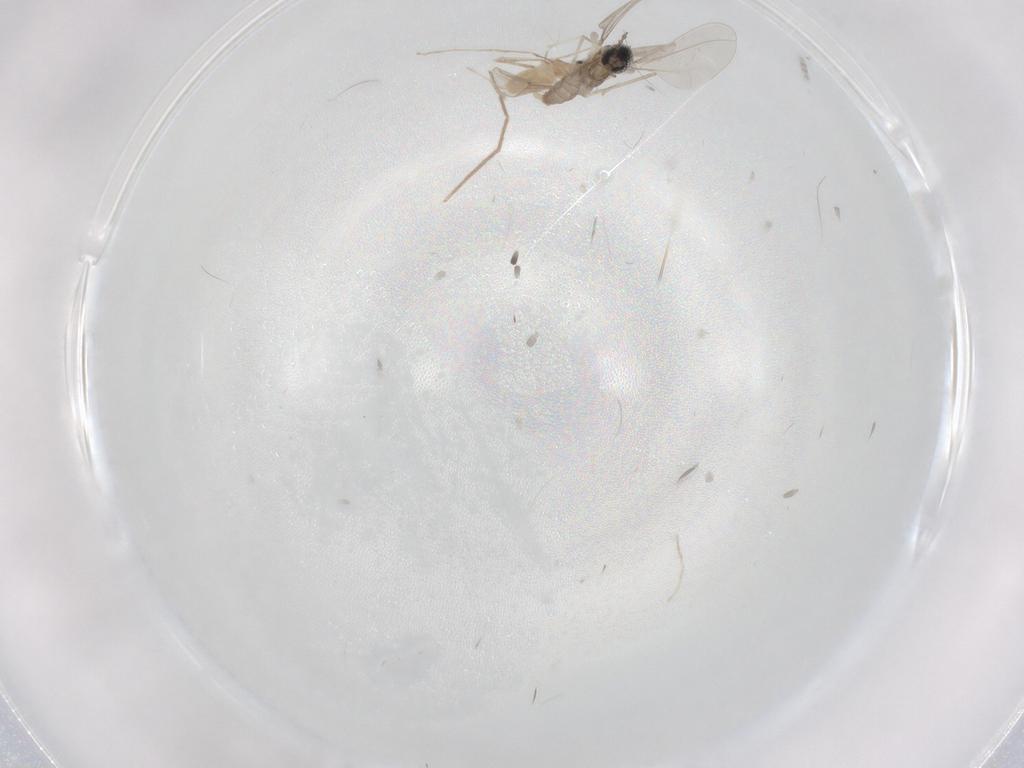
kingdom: Animalia
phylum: Arthropoda
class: Insecta
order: Diptera
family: Cecidomyiidae
